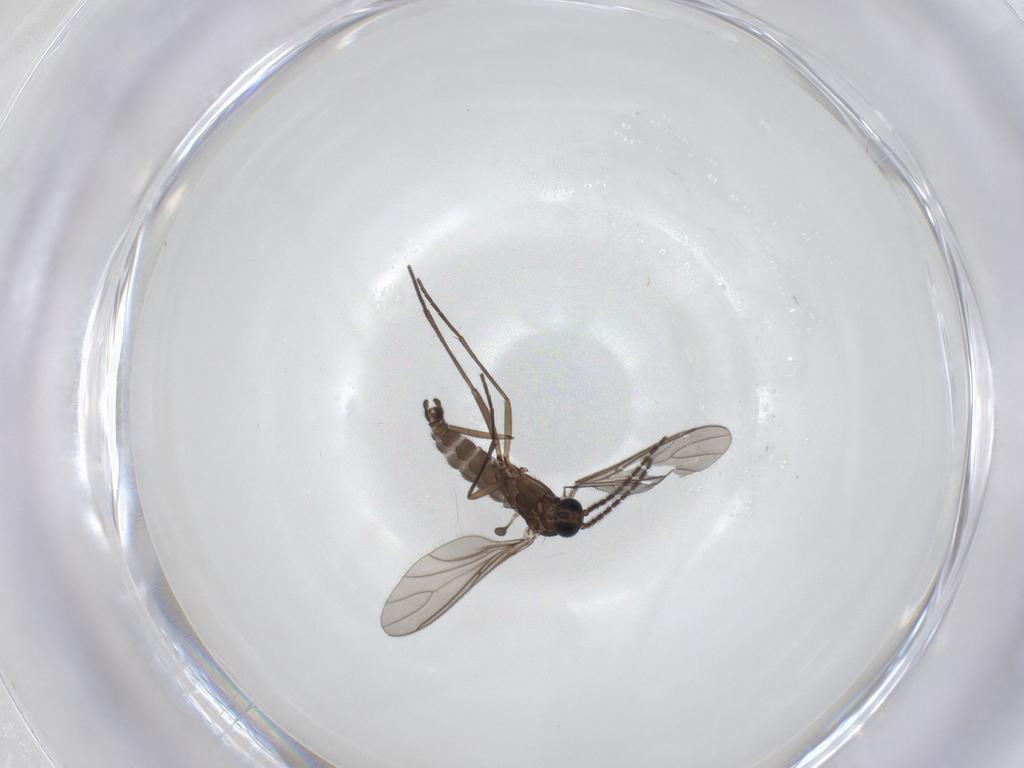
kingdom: Animalia
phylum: Arthropoda
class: Insecta
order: Diptera
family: Sciaridae
